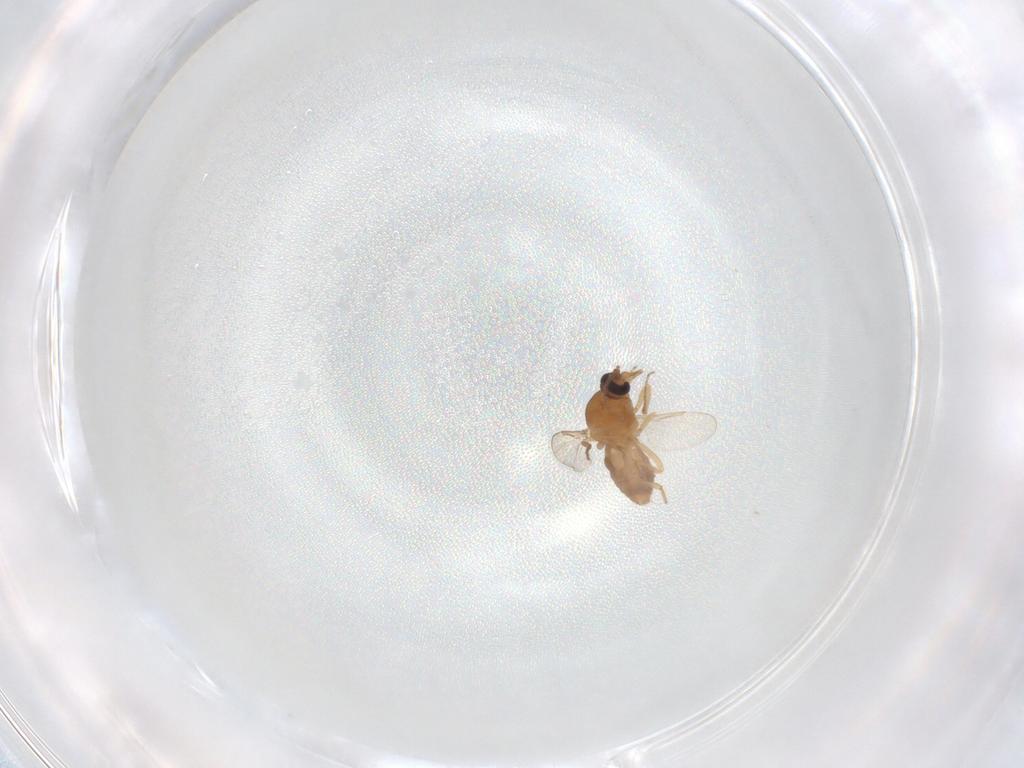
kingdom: Animalia
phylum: Arthropoda
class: Insecta
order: Diptera
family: Ceratopogonidae
